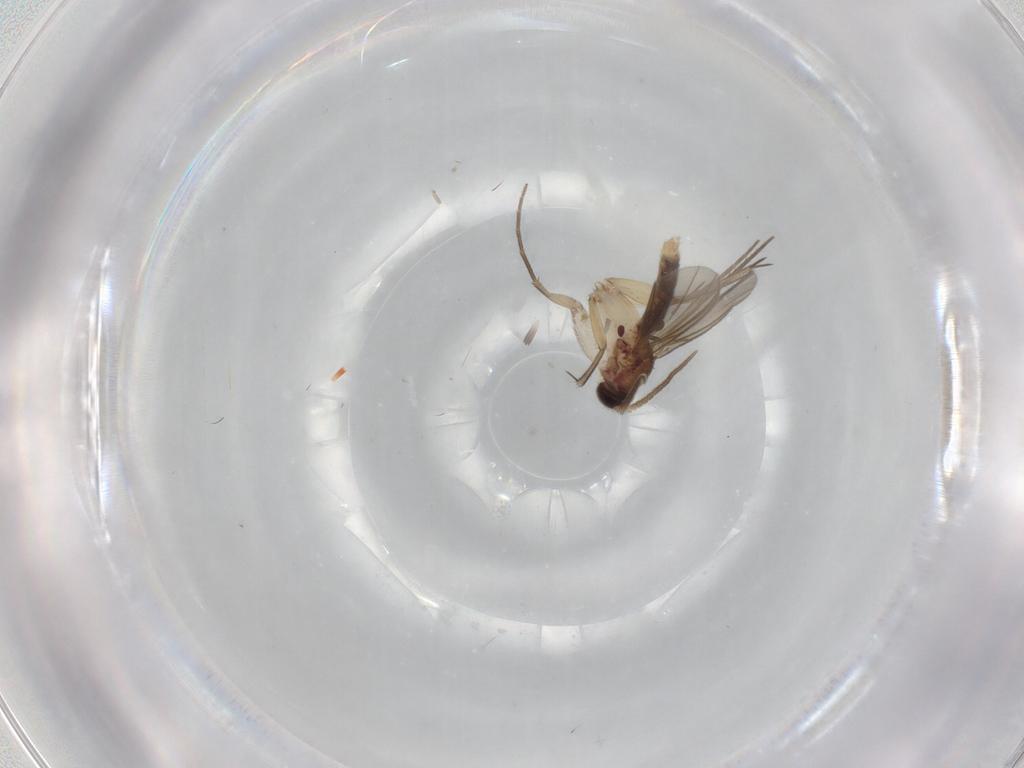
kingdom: Animalia
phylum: Arthropoda
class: Insecta
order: Diptera
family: Mycetophilidae
